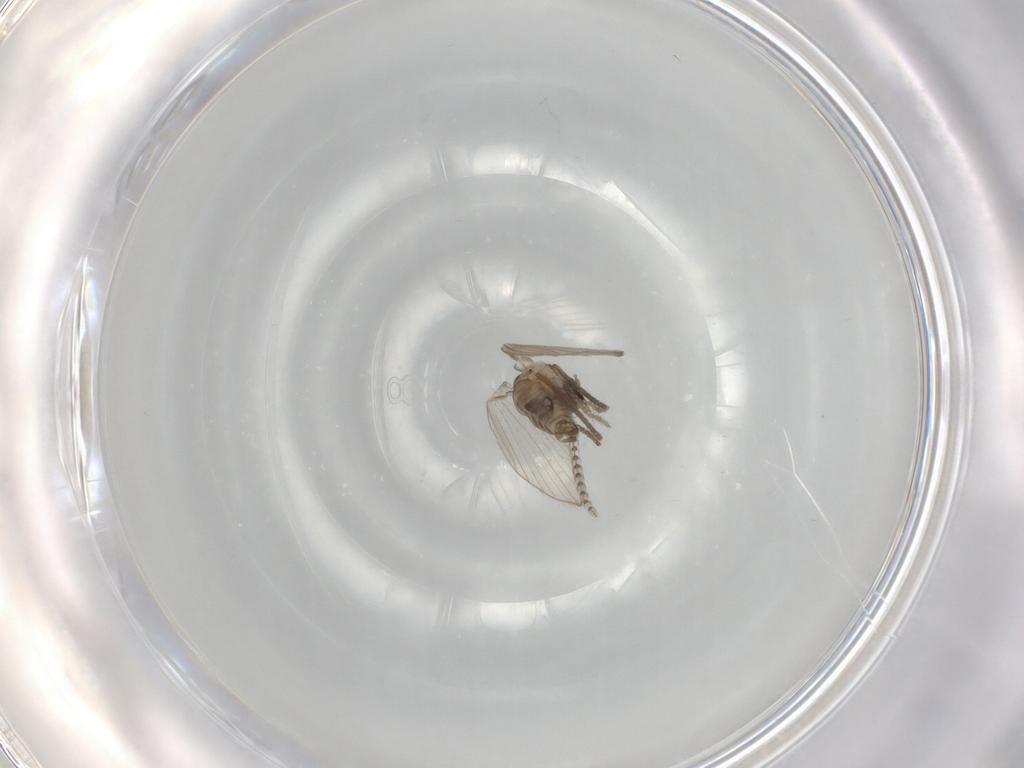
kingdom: Animalia
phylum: Arthropoda
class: Insecta
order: Diptera
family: Psychodidae
